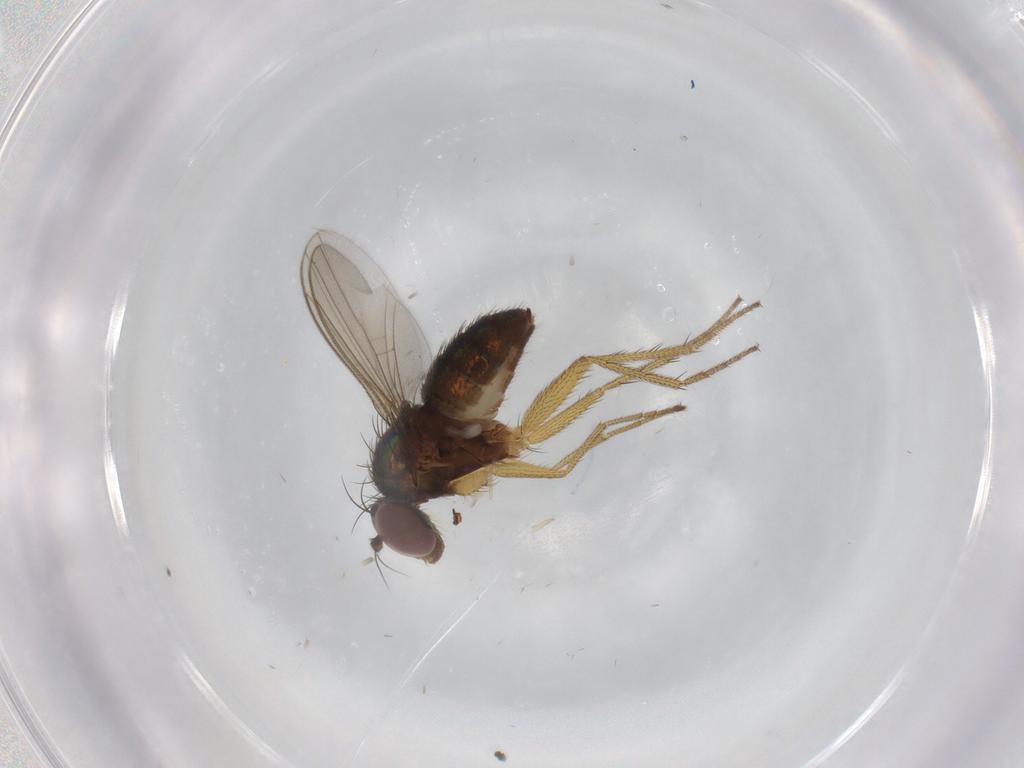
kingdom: Animalia
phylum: Arthropoda
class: Insecta
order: Diptera
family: Dolichopodidae
